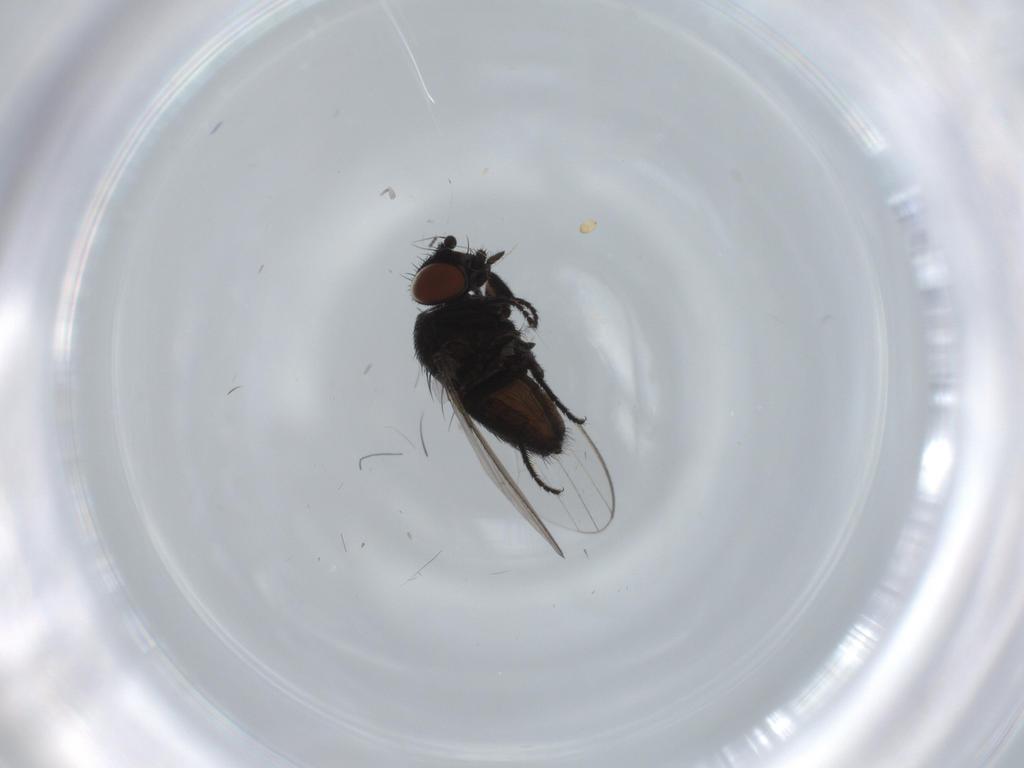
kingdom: Animalia
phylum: Arthropoda
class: Insecta
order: Diptera
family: Milichiidae
